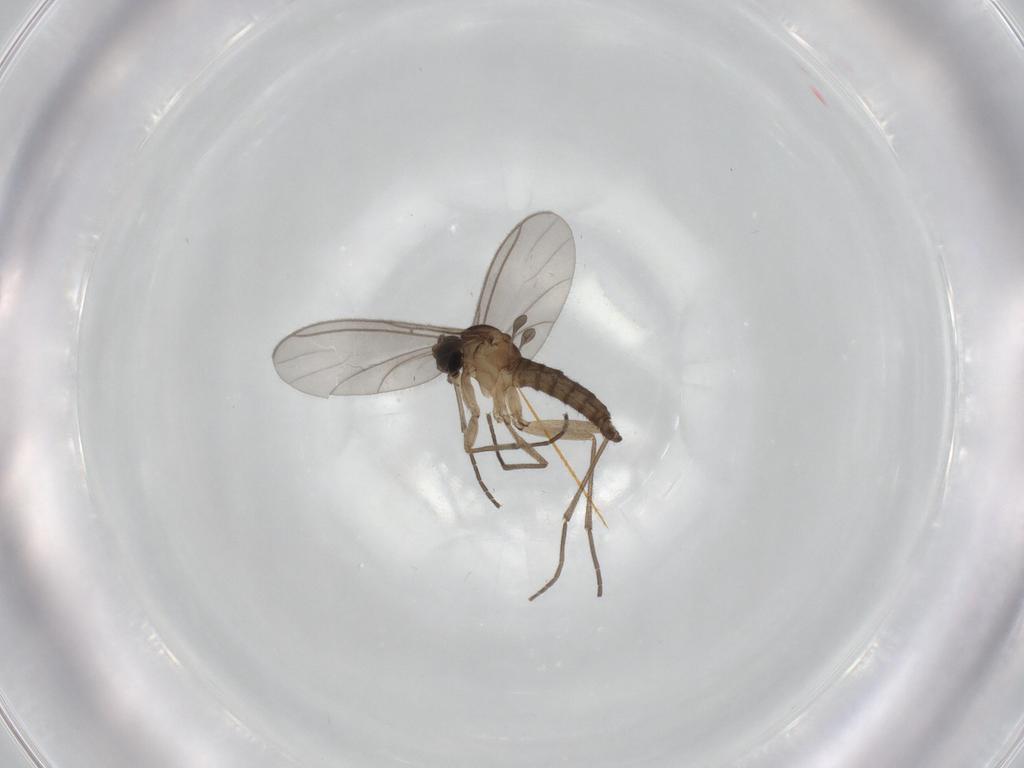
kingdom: Animalia
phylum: Arthropoda
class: Insecta
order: Diptera
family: Sciaridae
